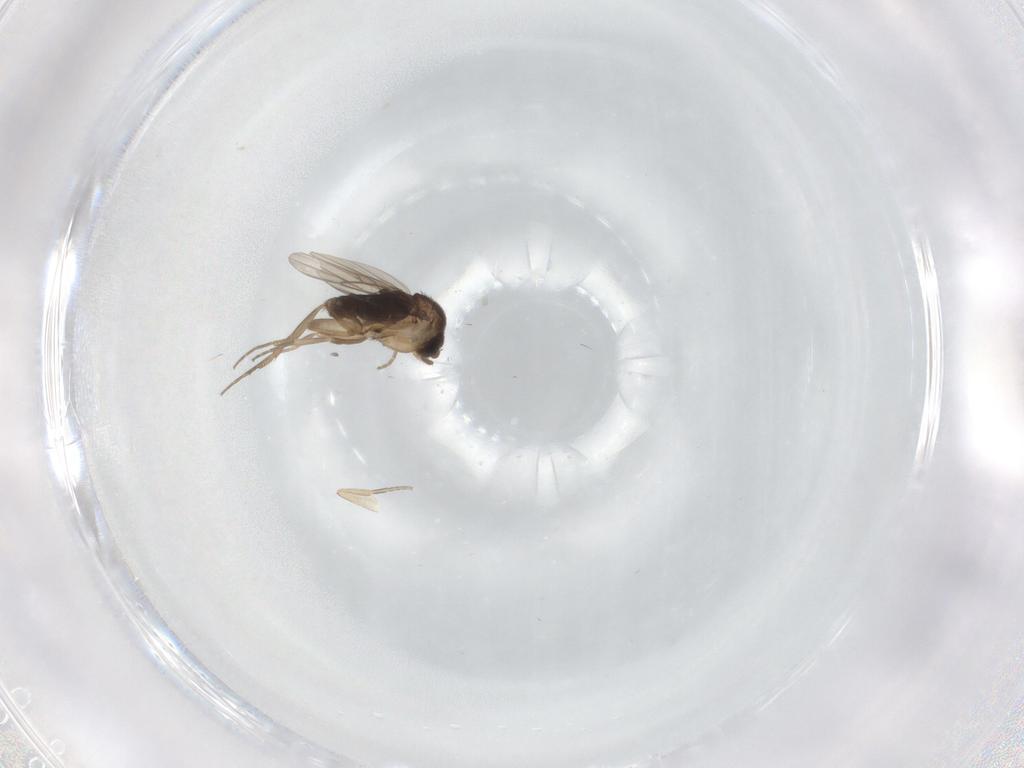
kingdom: Animalia
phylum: Arthropoda
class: Insecta
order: Diptera
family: Phoridae
